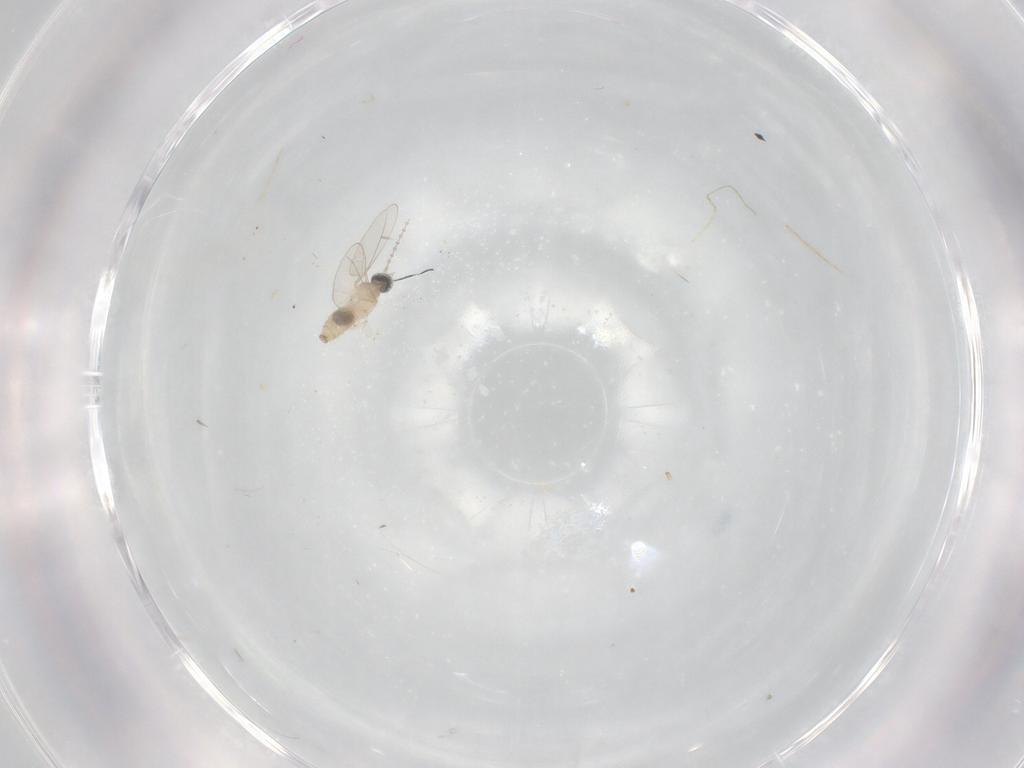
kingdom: Animalia
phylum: Arthropoda
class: Insecta
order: Diptera
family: Cecidomyiidae
